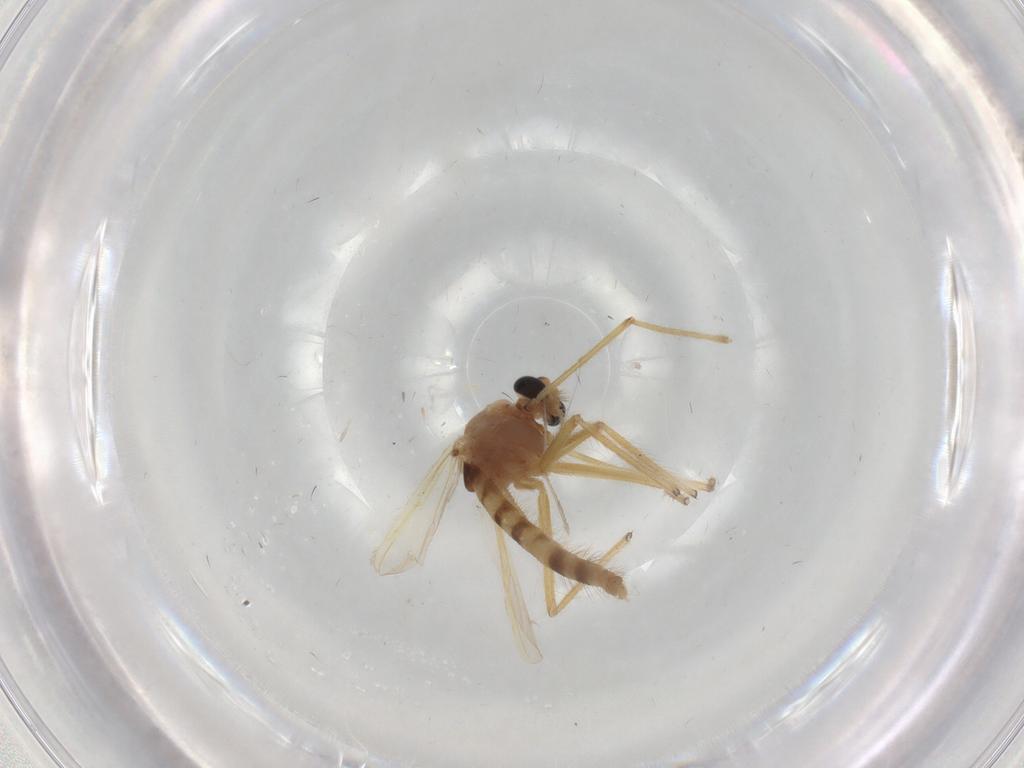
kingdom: Animalia
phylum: Arthropoda
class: Insecta
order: Diptera
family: Chironomidae
